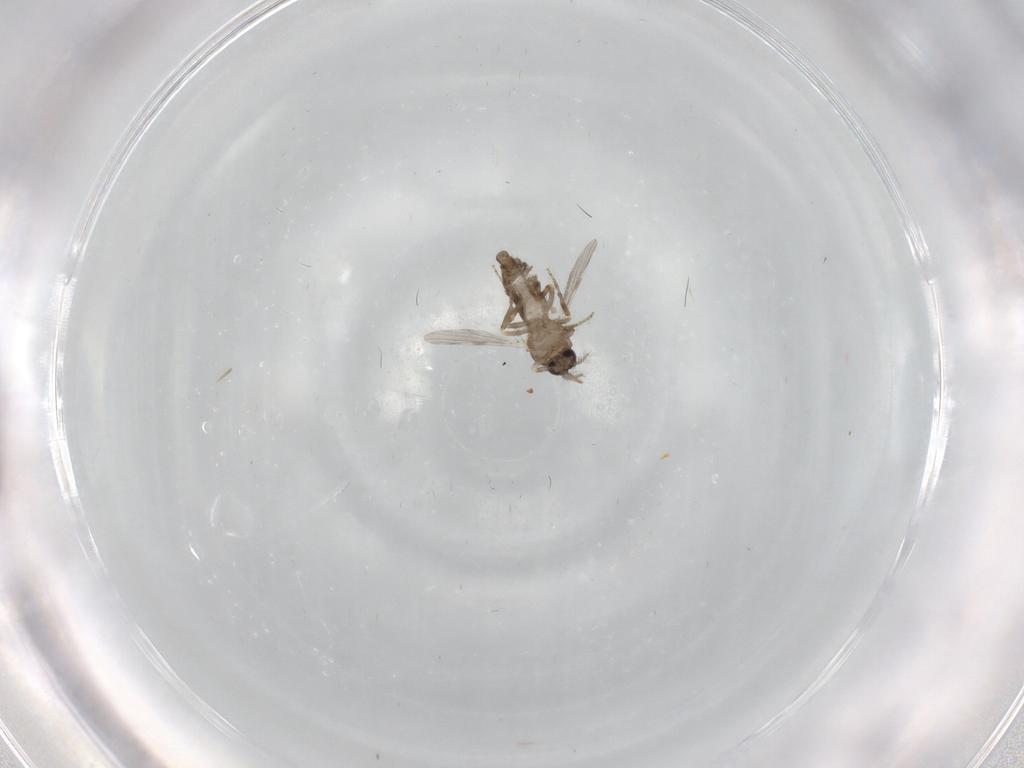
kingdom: Animalia
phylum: Arthropoda
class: Insecta
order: Diptera
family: Ceratopogonidae
